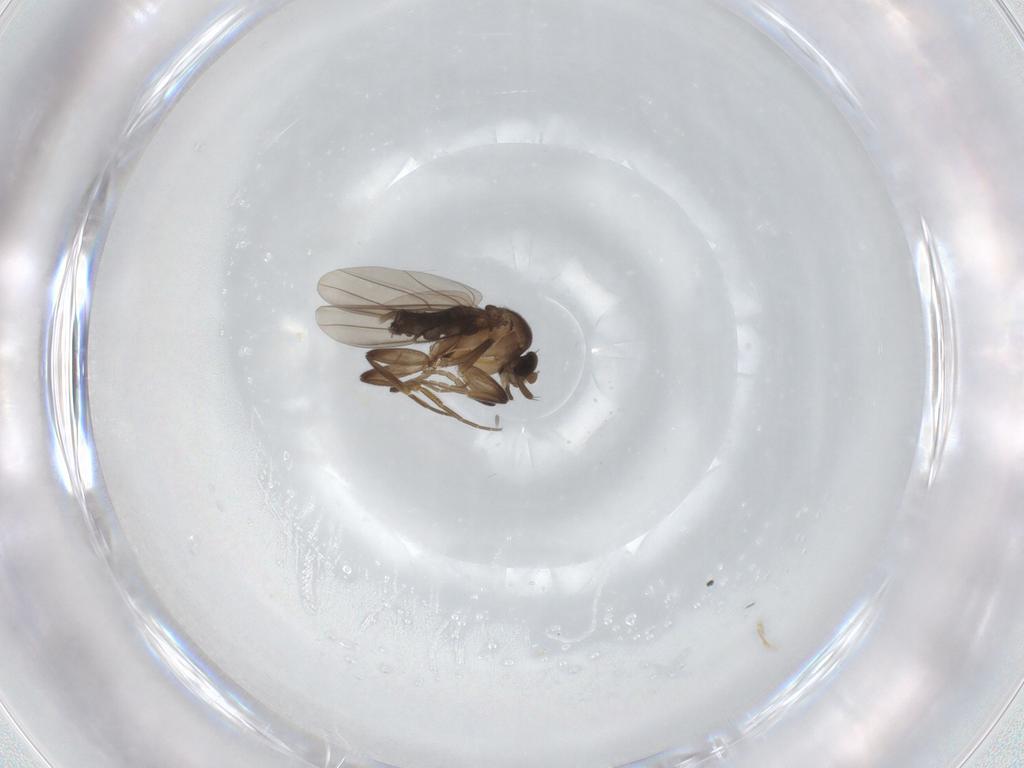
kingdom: Animalia
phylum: Arthropoda
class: Insecta
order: Diptera
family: Phoridae
